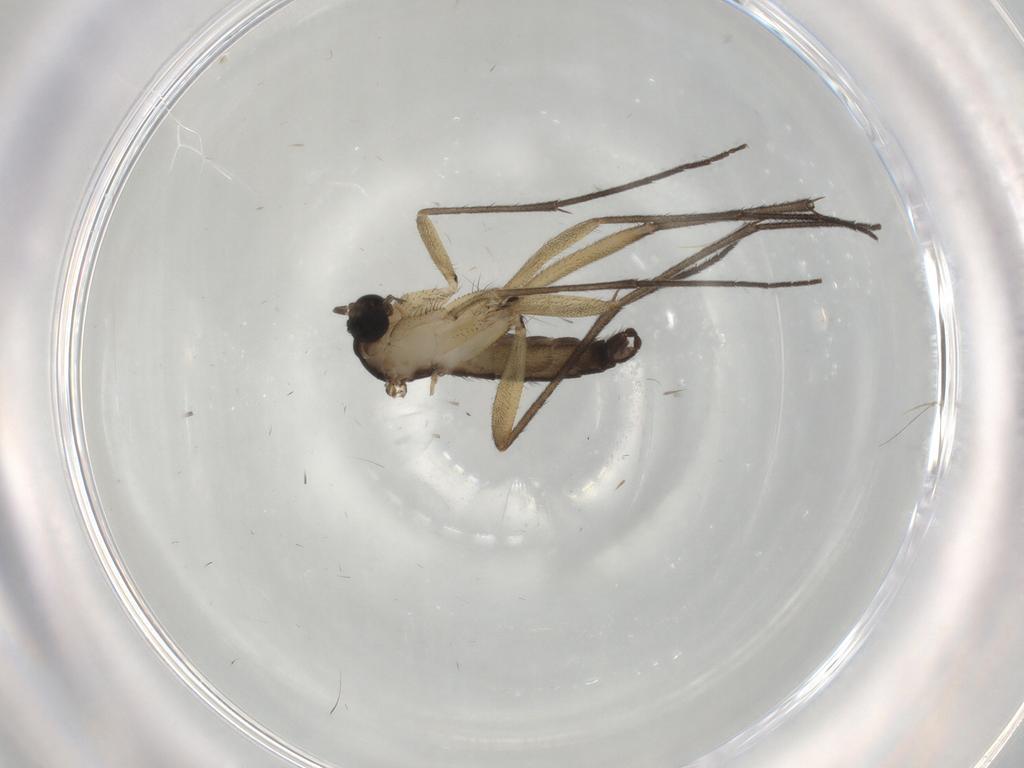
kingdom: Animalia
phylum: Arthropoda
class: Insecta
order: Diptera
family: Sciaridae
